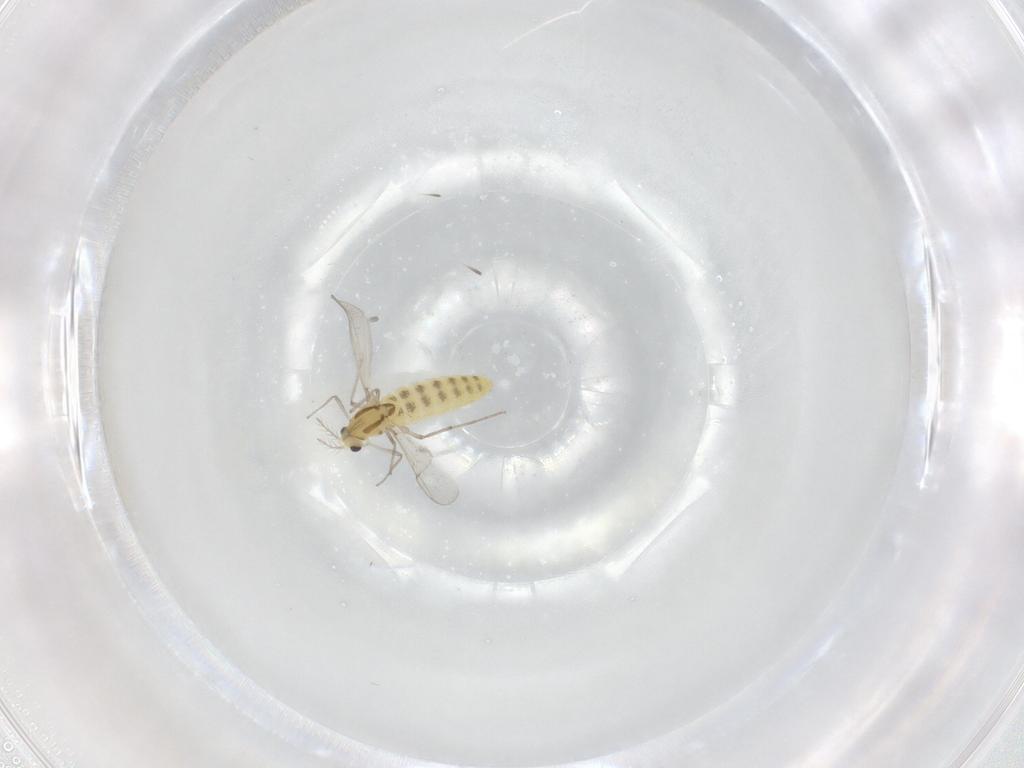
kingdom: Animalia
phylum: Arthropoda
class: Insecta
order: Diptera
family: Chironomidae
